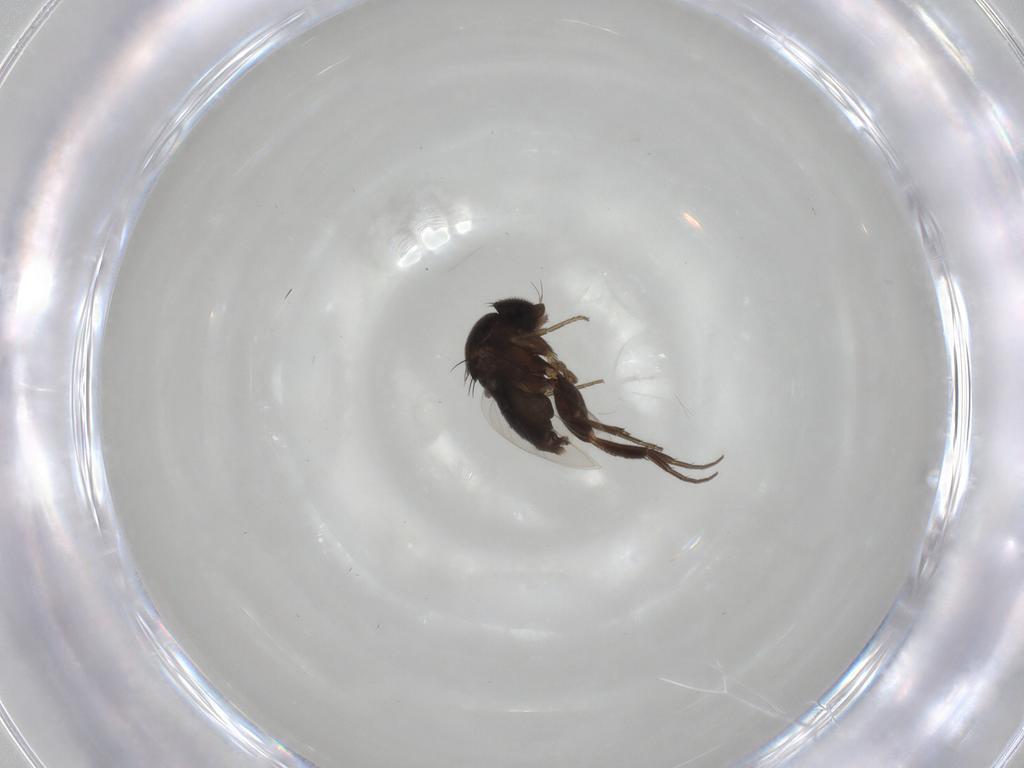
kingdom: Animalia
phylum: Arthropoda
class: Insecta
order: Diptera
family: Phoridae
